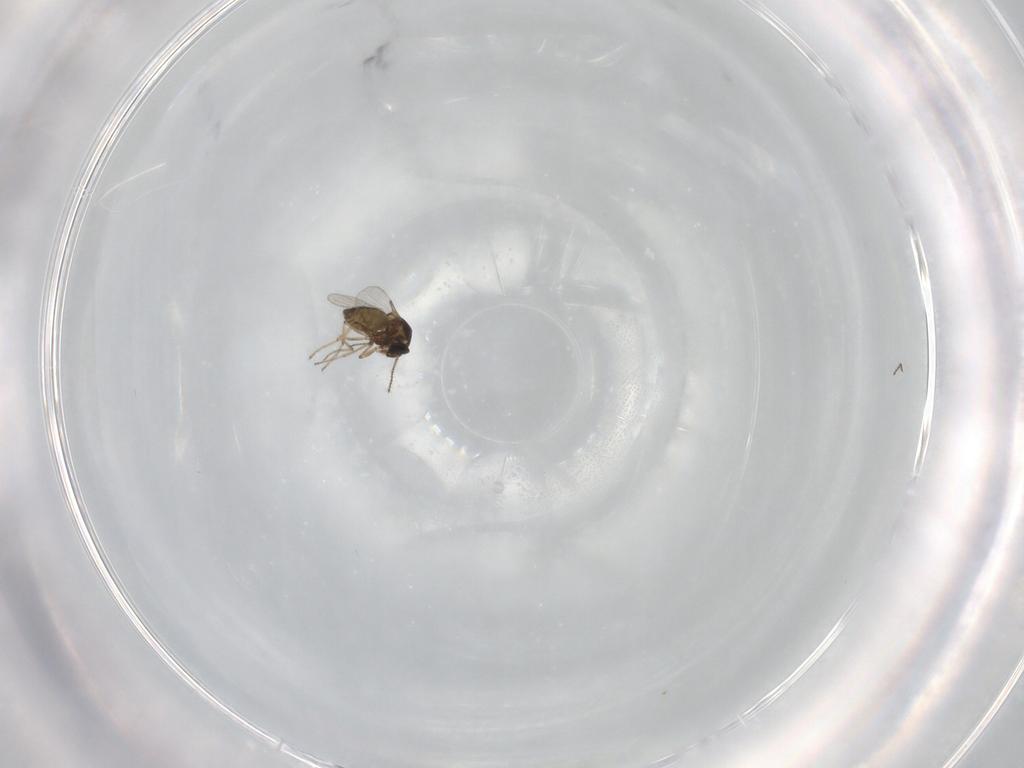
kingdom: Animalia
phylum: Arthropoda
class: Insecta
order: Diptera
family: Ceratopogonidae
